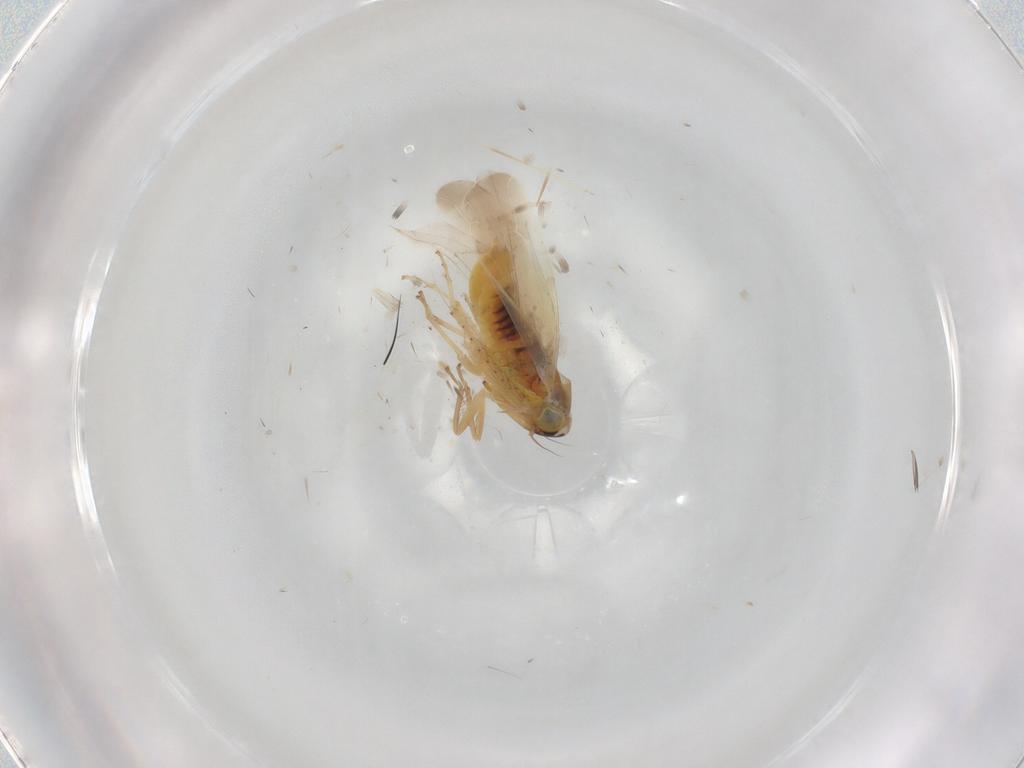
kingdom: Animalia
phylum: Arthropoda
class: Insecta
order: Hemiptera
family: Cicadellidae
